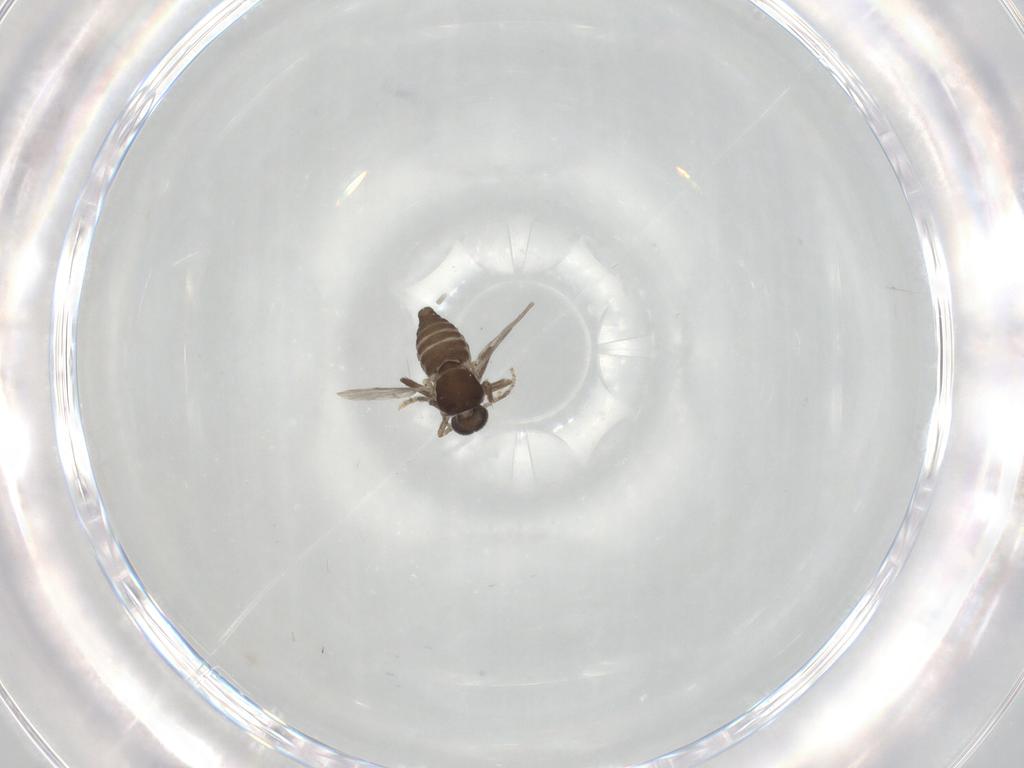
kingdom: Animalia
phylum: Arthropoda
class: Insecta
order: Diptera
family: Ceratopogonidae
